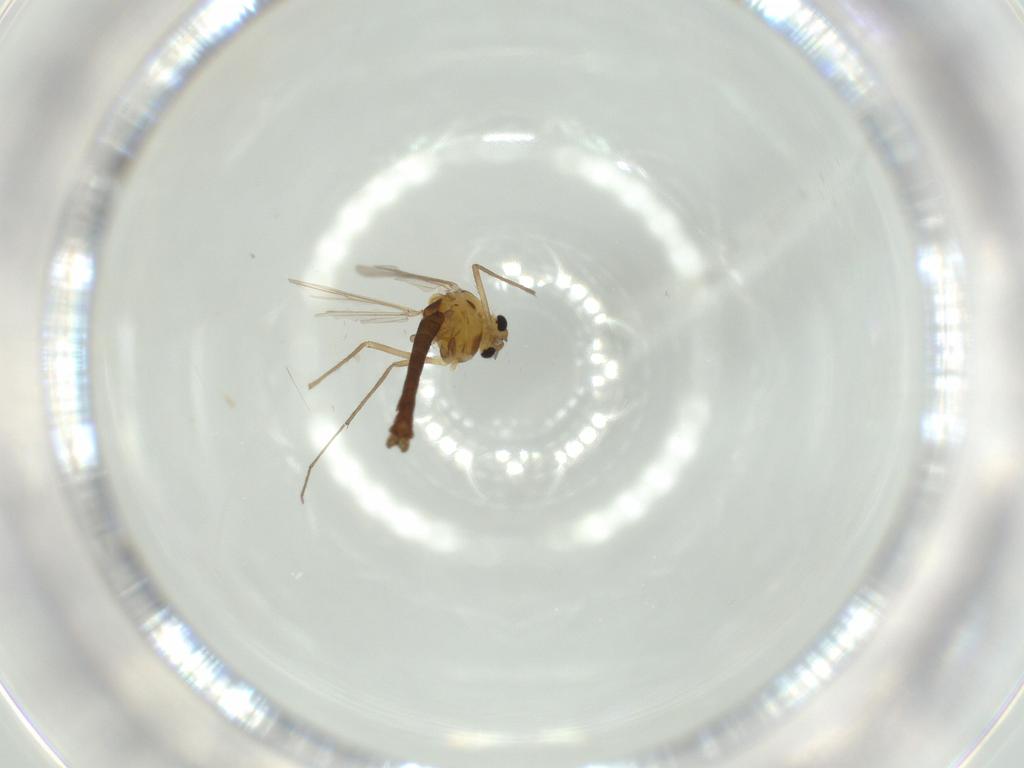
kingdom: Animalia
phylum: Arthropoda
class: Insecta
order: Diptera
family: Chironomidae
